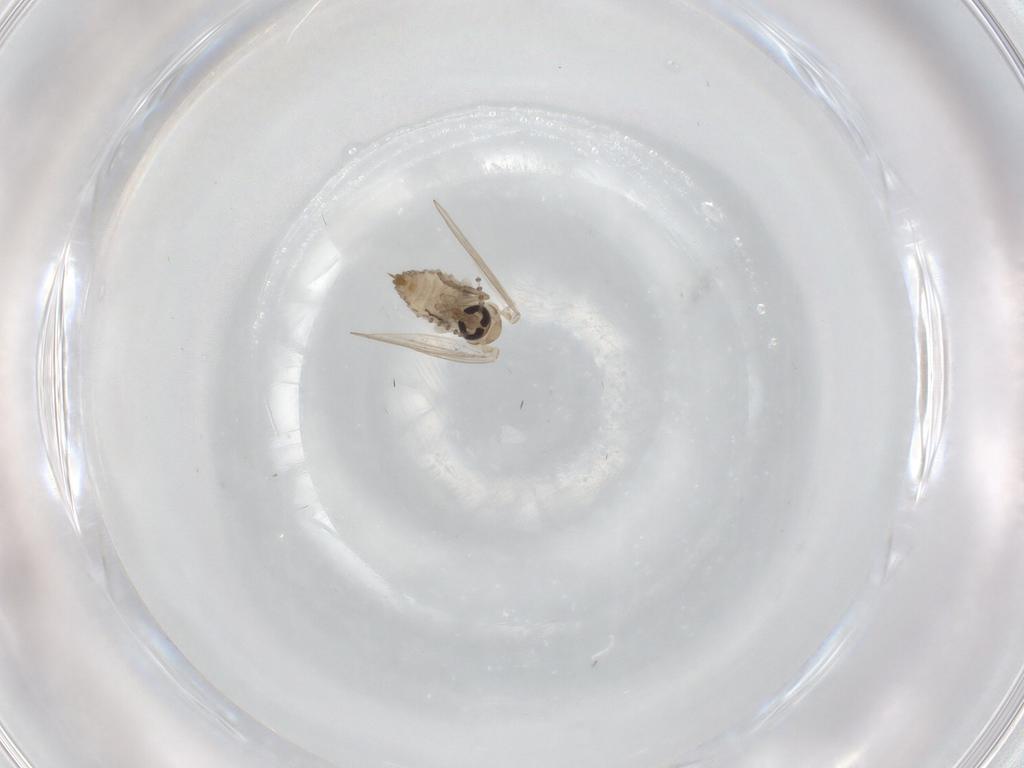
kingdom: Animalia
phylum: Arthropoda
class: Insecta
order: Diptera
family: Psychodidae
